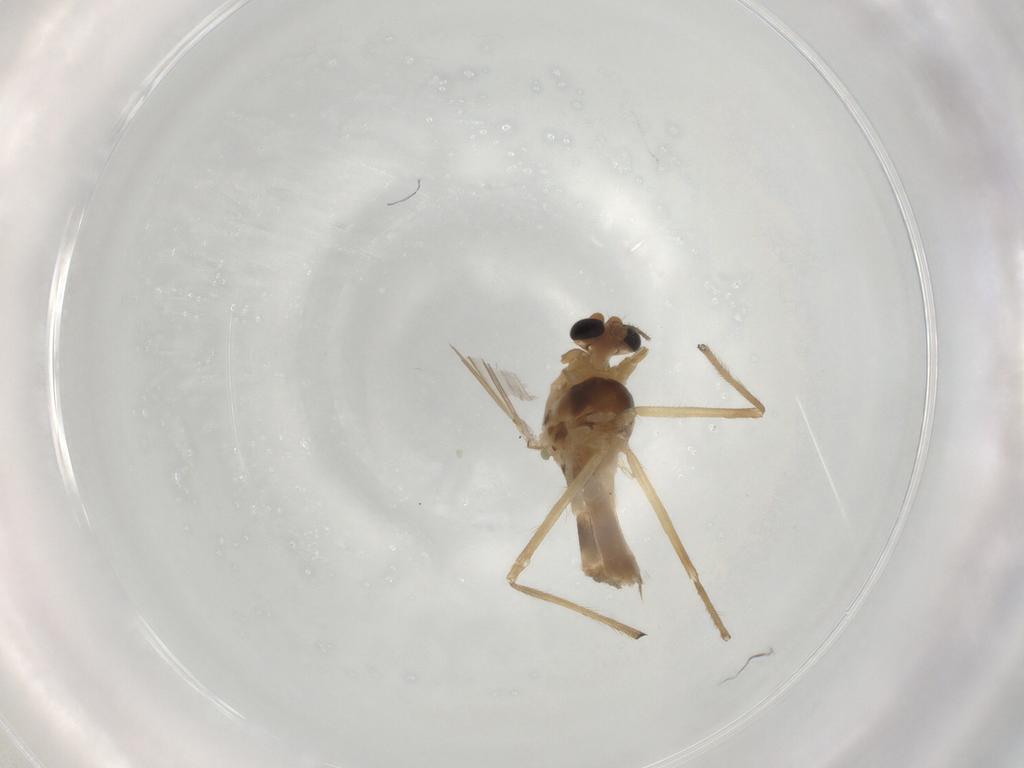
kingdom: Animalia
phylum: Arthropoda
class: Insecta
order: Diptera
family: Chironomidae
